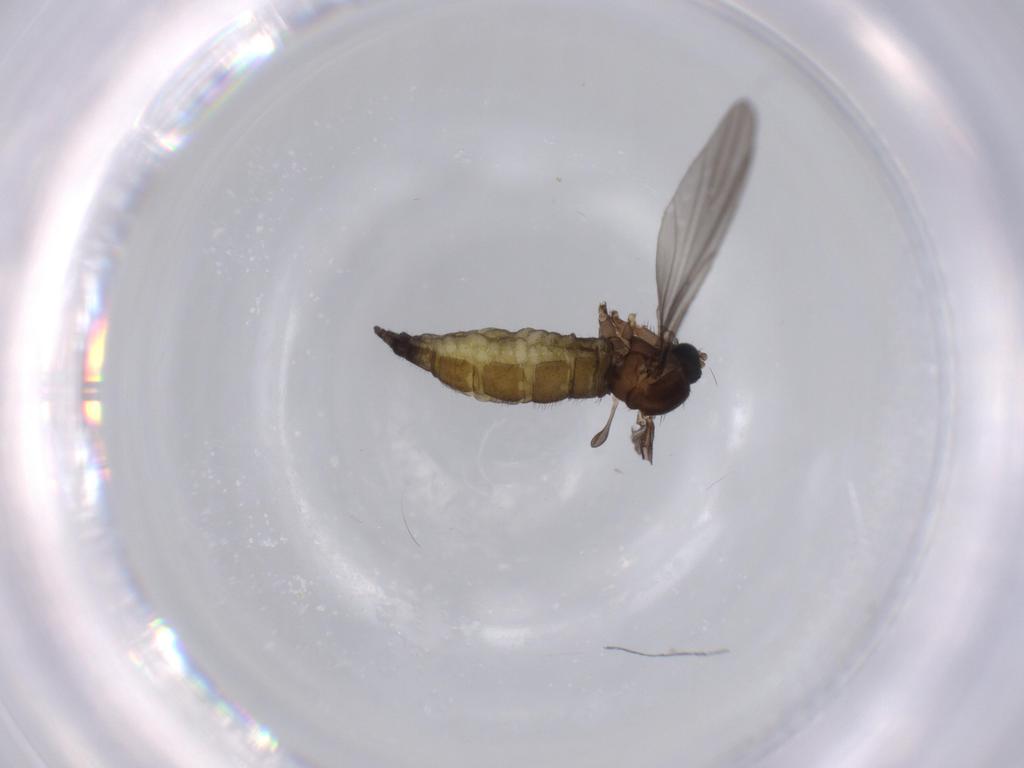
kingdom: Animalia
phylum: Arthropoda
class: Insecta
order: Diptera
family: Sciaridae
